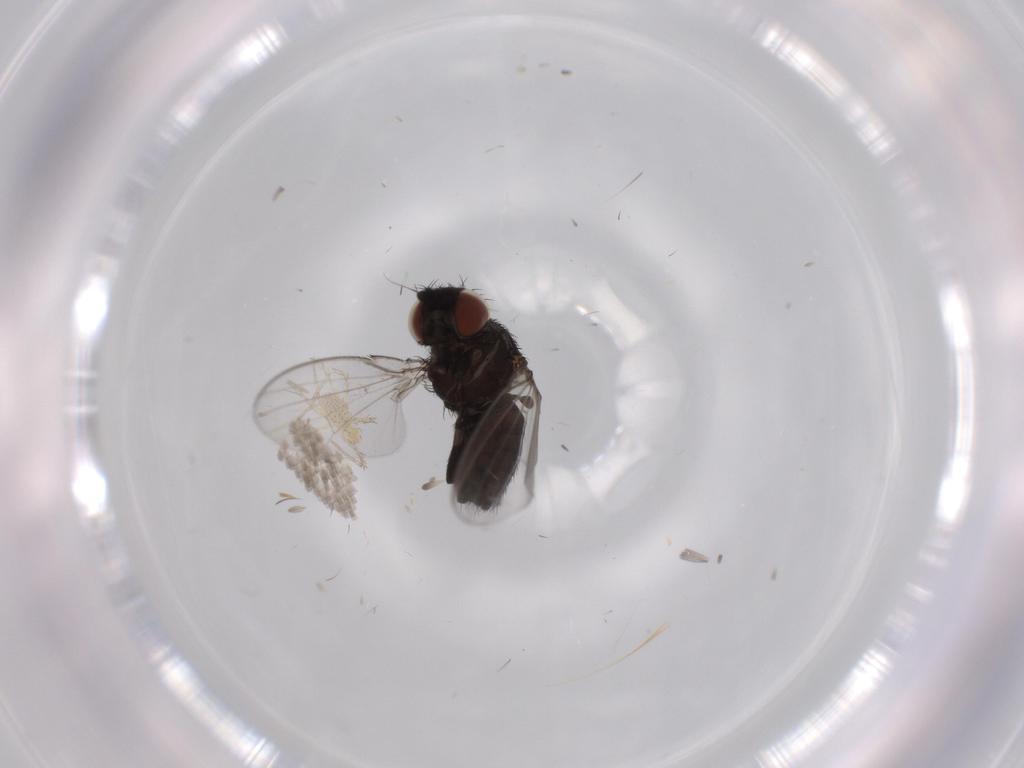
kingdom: Animalia
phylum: Arthropoda
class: Insecta
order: Diptera
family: Milichiidae
